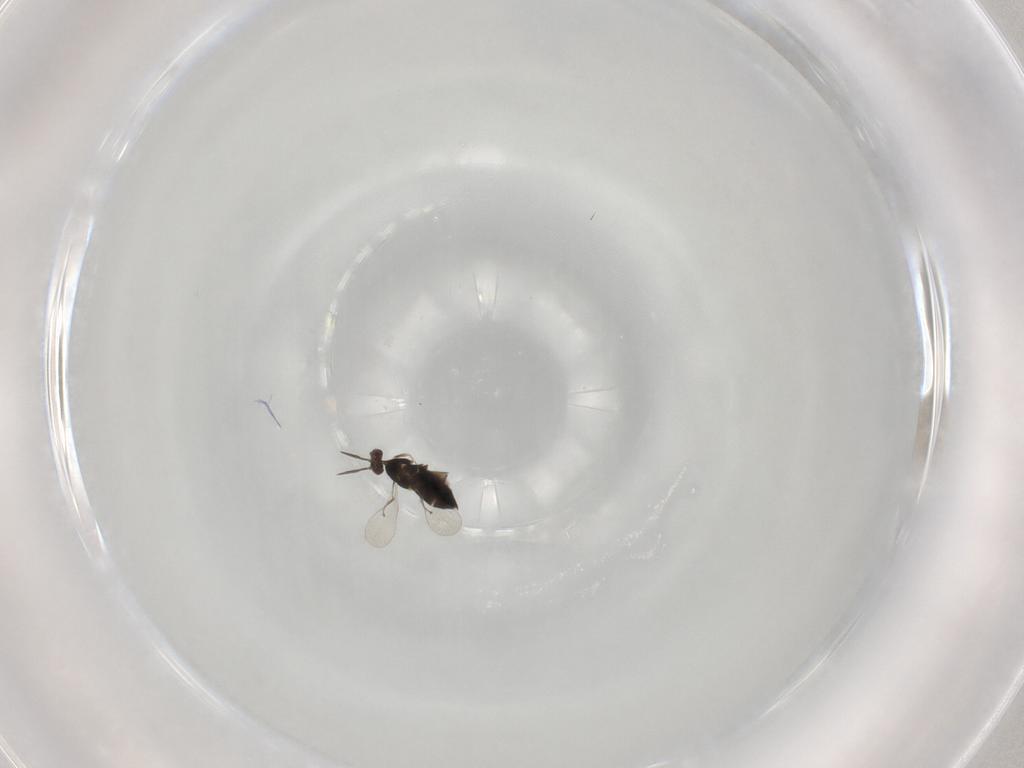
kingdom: Animalia
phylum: Arthropoda
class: Insecta
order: Hymenoptera
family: Trichogrammatidae
